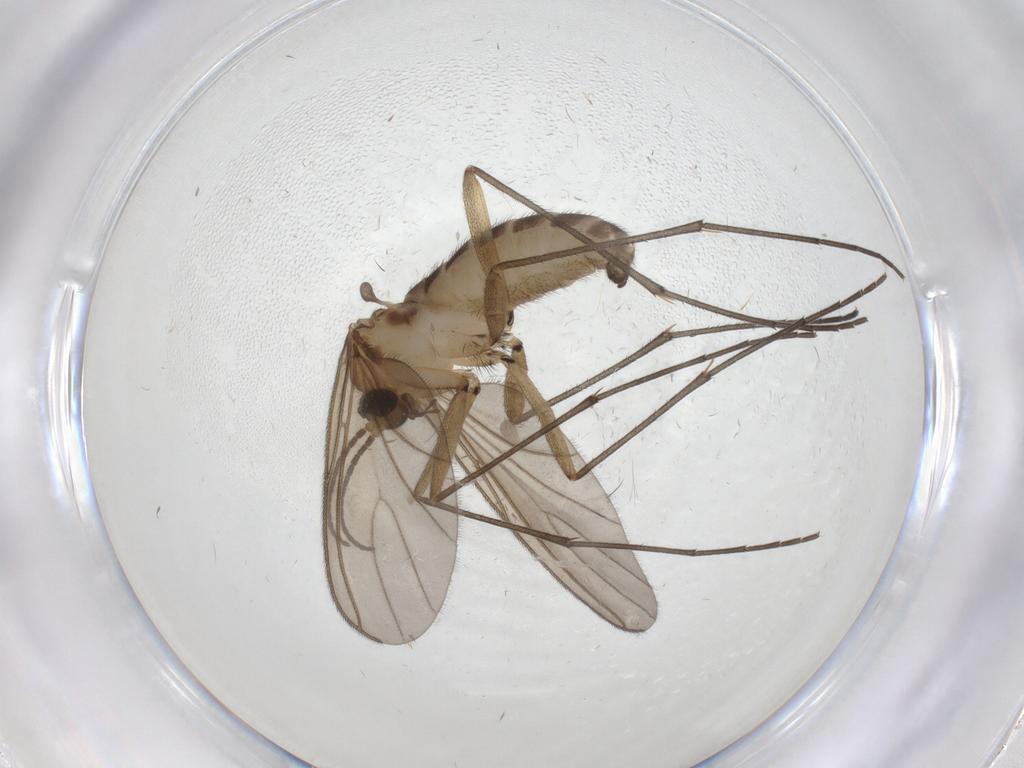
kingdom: Animalia
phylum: Arthropoda
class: Insecta
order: Diptera
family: Sciaridae
